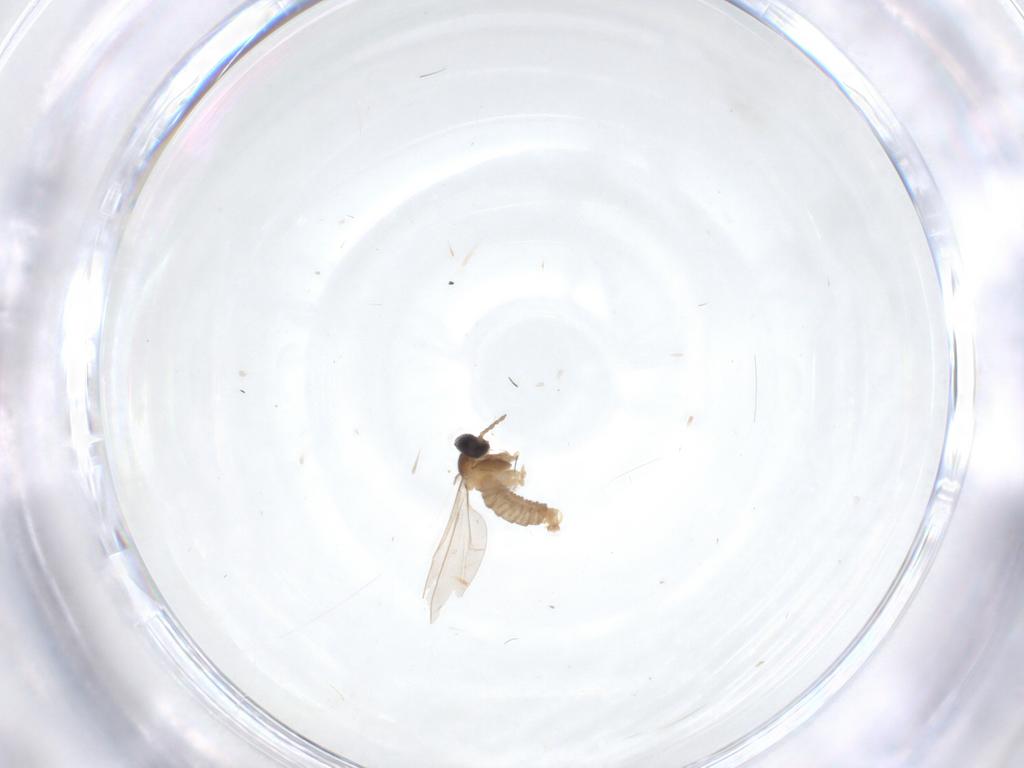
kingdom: Animalia
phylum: Arthropoda
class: Insecta
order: Diptera
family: Cecidomyiidae
